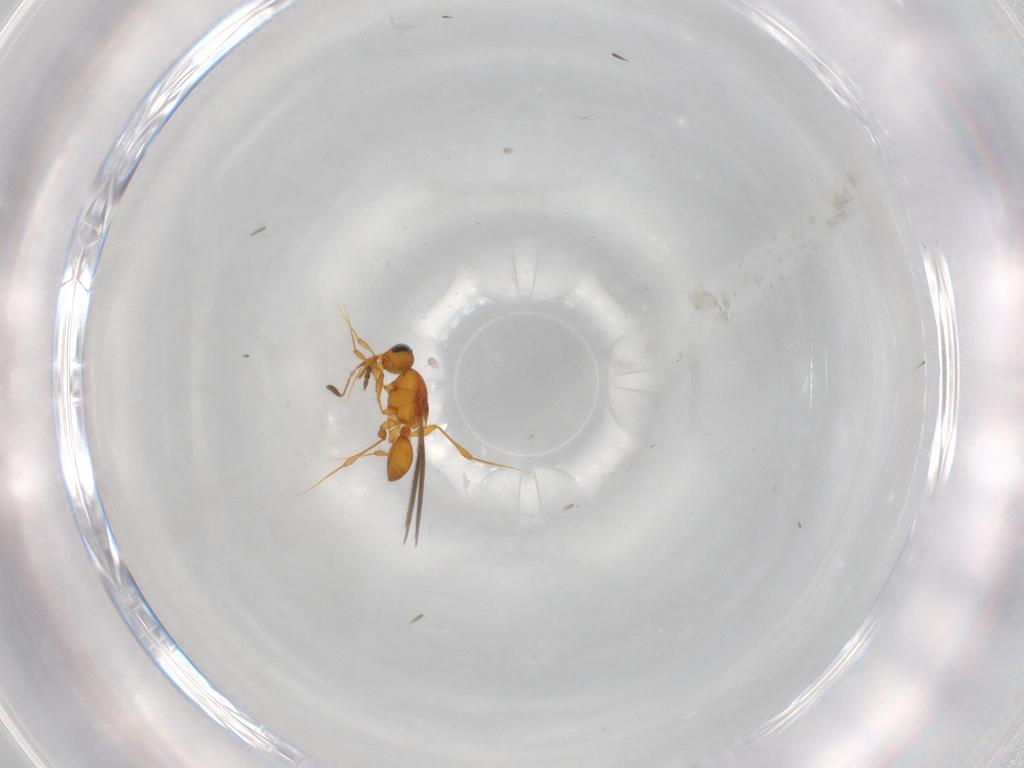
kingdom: Animalia
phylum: Arthropoda
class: Insecta
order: Hymenoptera
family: Platygastridae
